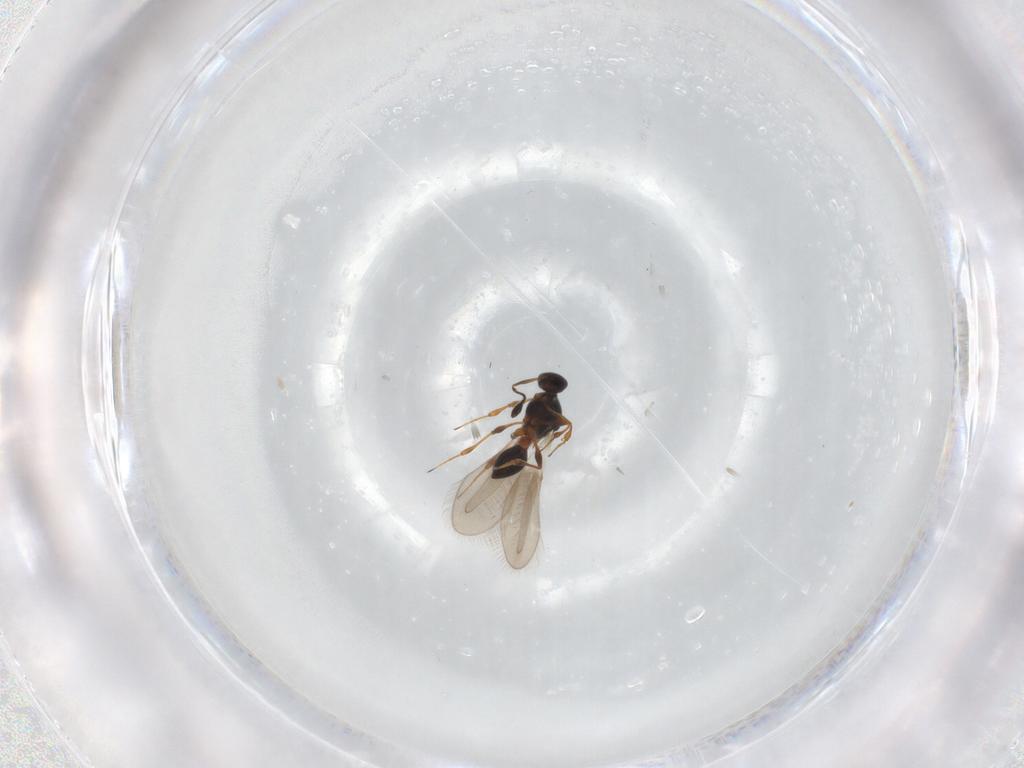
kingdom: Animalia
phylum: Arthropoda
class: Insecta
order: Hymenoptera
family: Platygastridae
